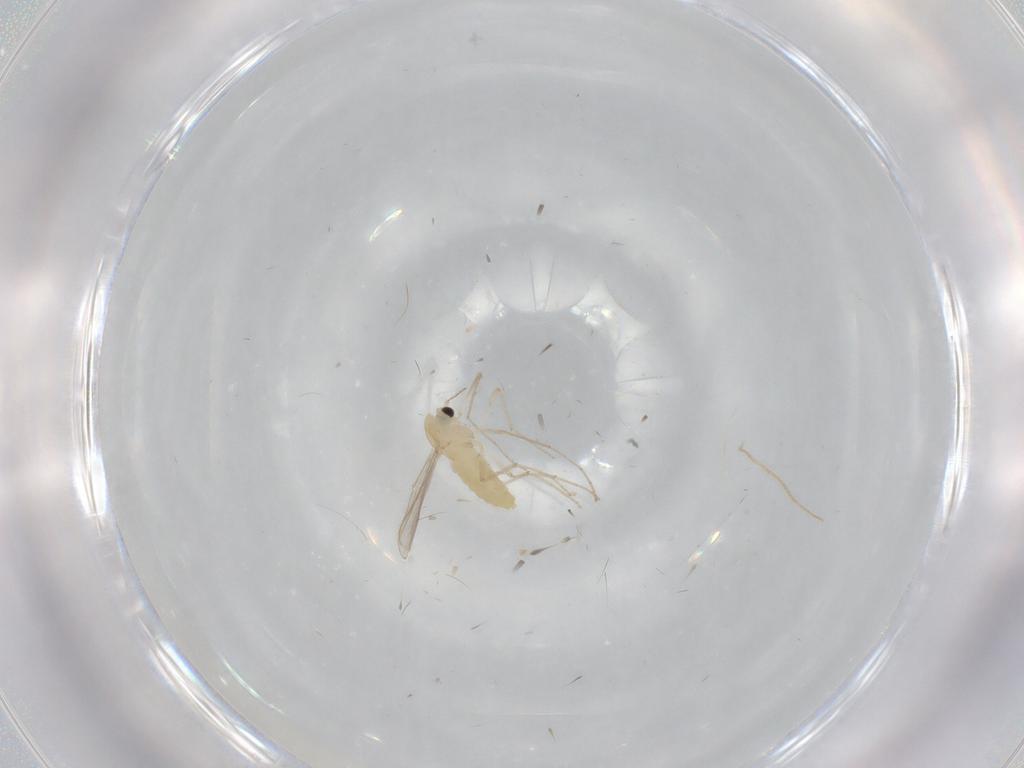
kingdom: Animalia
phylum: Arthropoda
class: Insecta
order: Diptera
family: Chironomidae
